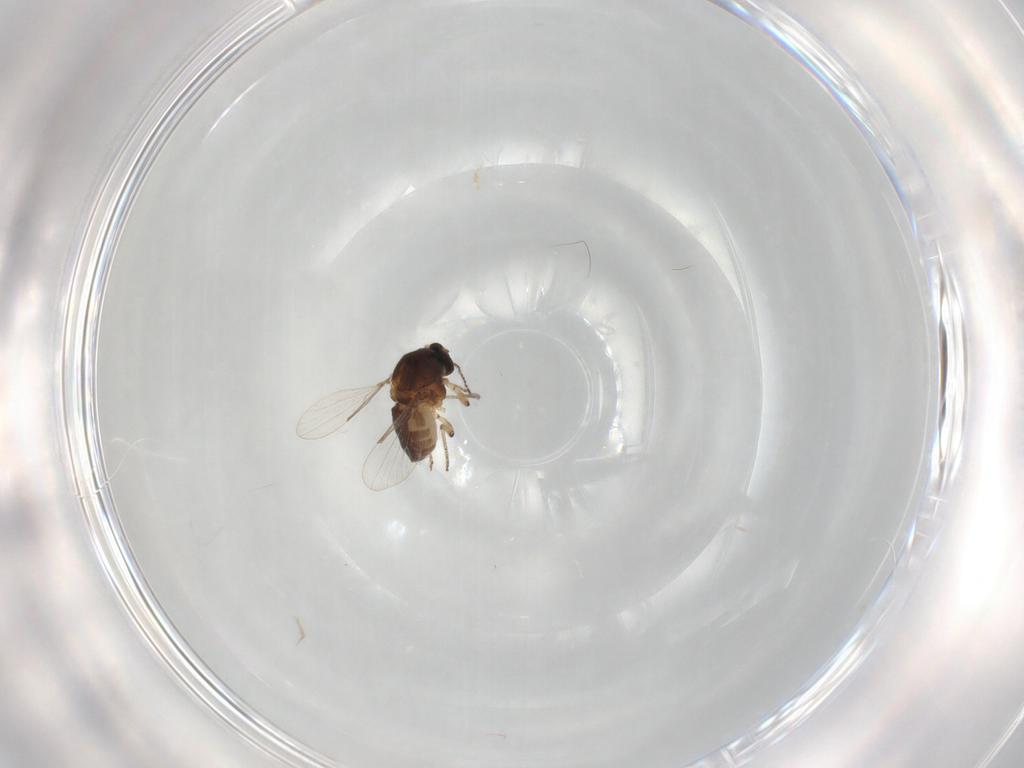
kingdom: Animalia
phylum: Arthropoda
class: Insecta
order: Diptera
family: Ceratopogonidae
